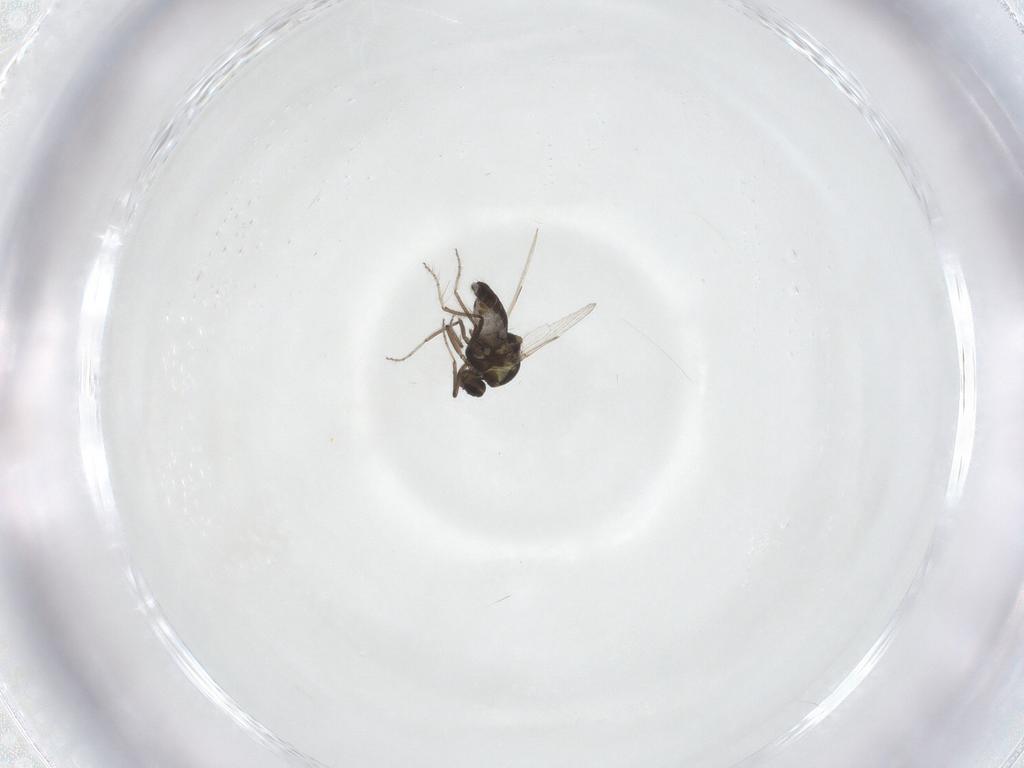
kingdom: Animalia
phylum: Arthropoda
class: Insecta
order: Diptera
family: Ceratopogonidae
